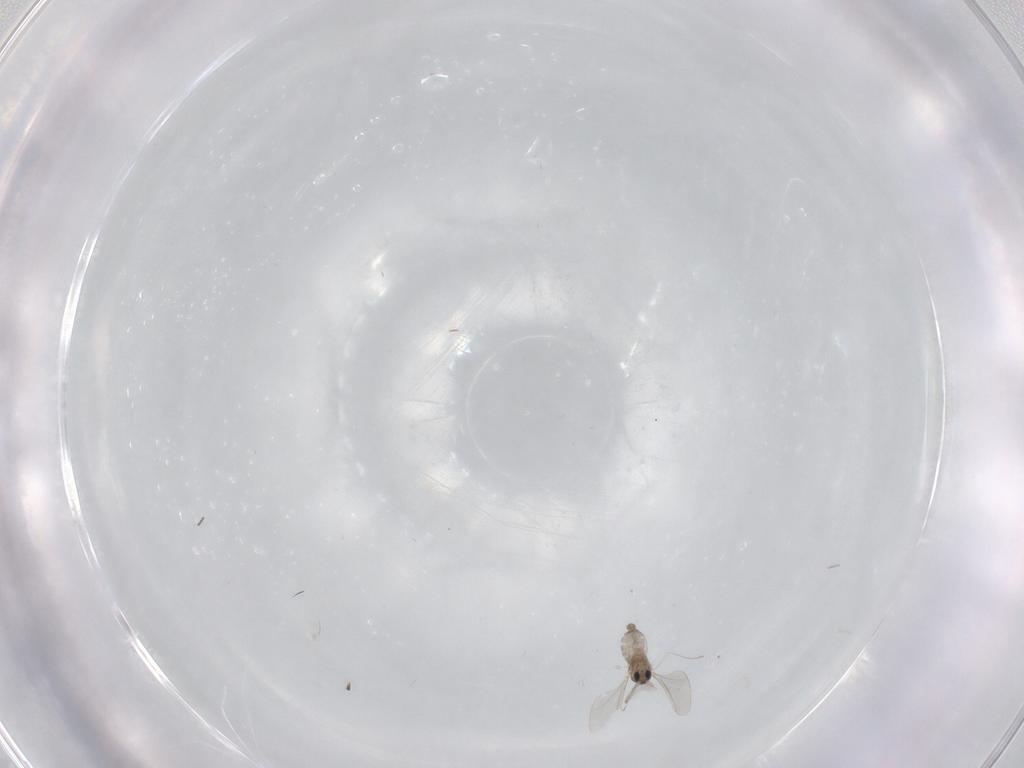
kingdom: Animalia
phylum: Arthropoda
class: Insecta
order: Diptera
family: Cecidomyiidae
